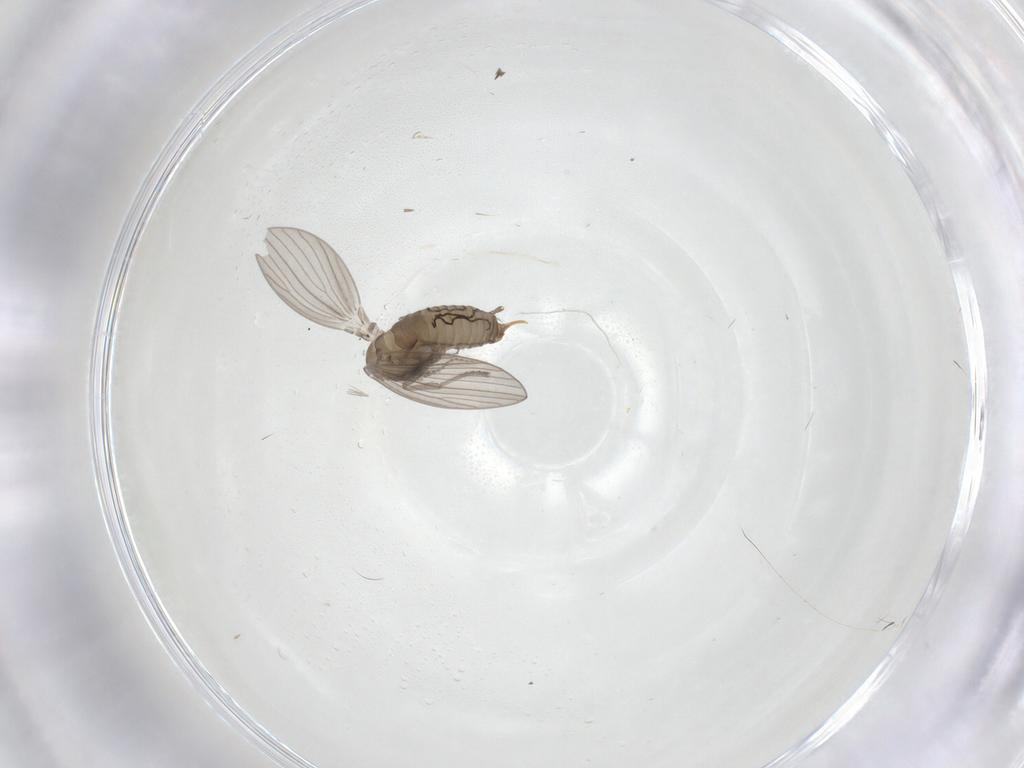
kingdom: Animalia
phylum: Arthropoda
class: Insecta
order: Diptera
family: Psychodidae
